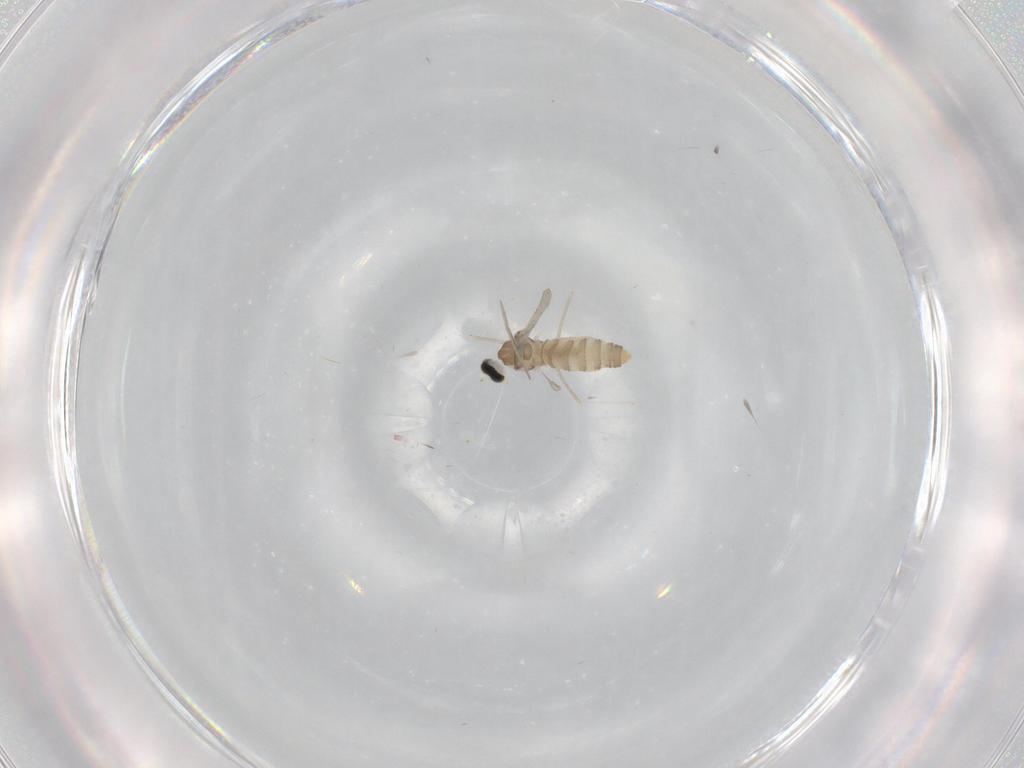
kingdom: Animalia
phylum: Arthropoda
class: Insecta
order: Diptera
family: Cecidomyiidae
